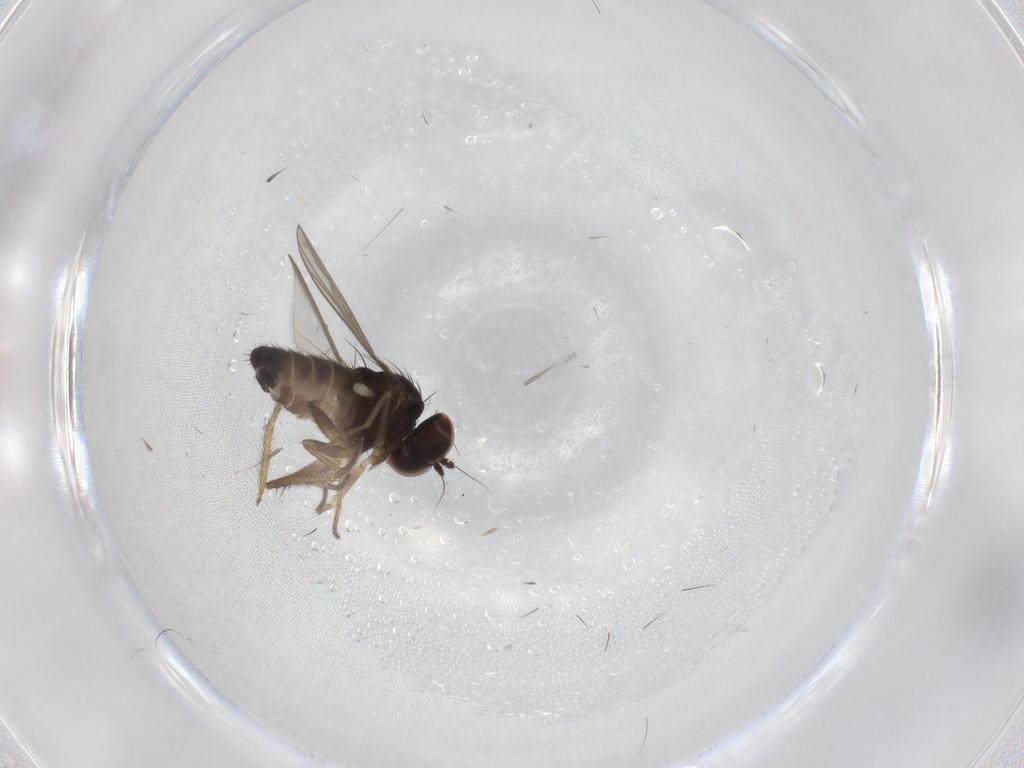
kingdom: Animalia
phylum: Arthropoda
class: Insecta
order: Diptera
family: Dolichopodidae
